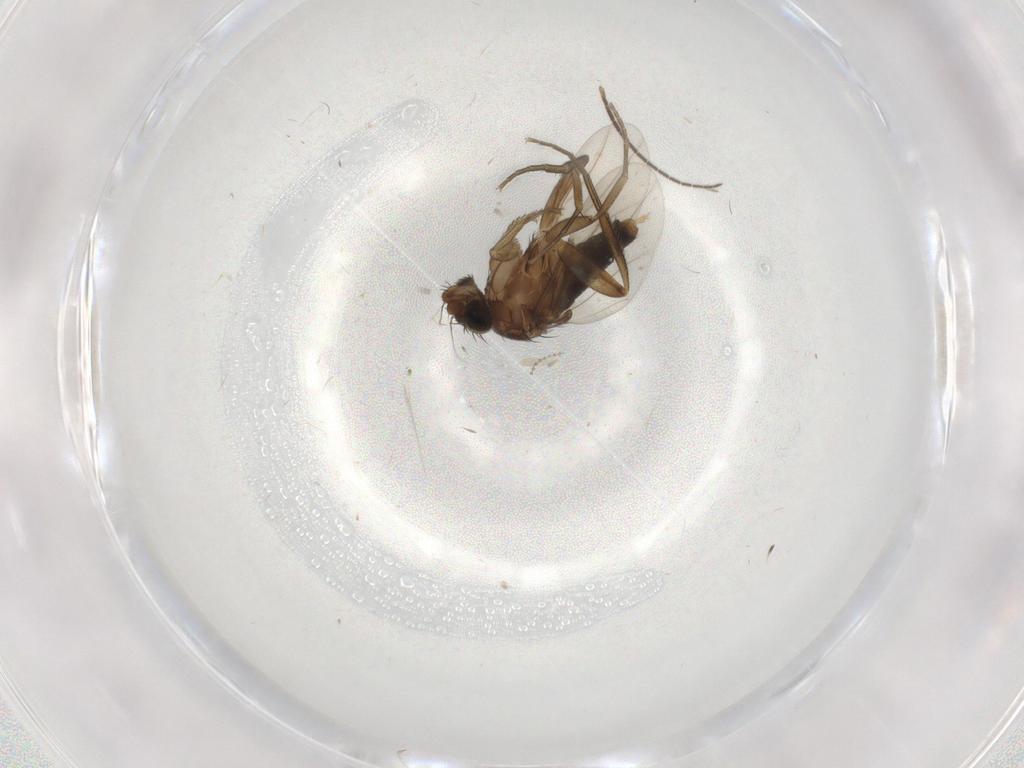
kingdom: Animalia
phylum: Arthropoda
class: Insecta
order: Diptera
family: Phoridae
